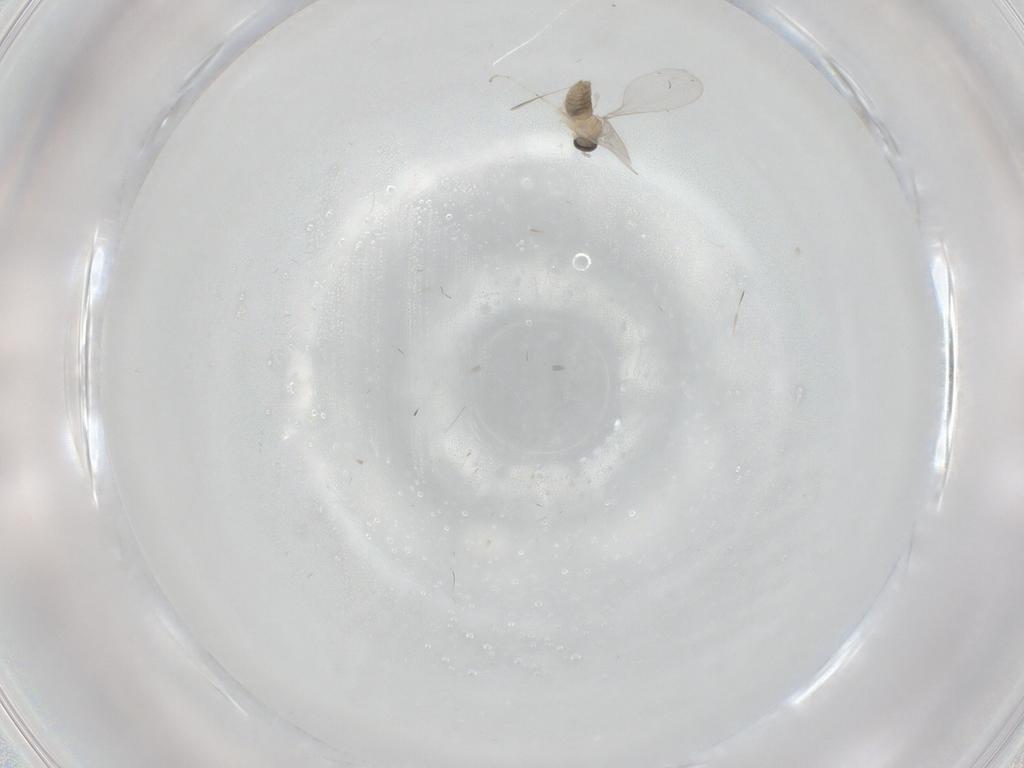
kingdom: Animalia
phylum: Arthropoda
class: Insecta
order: Diptera
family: Cecidomyiidae
